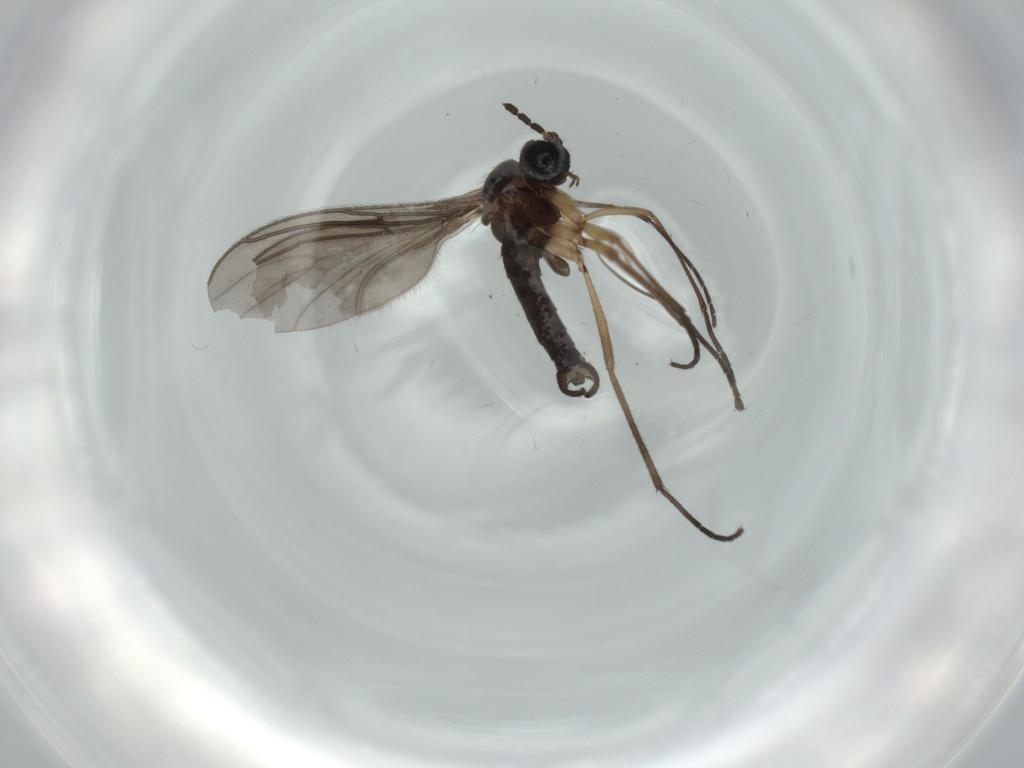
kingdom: Animalia
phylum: Arthropoda
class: Insecta
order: Diptera
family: Sciaridae
